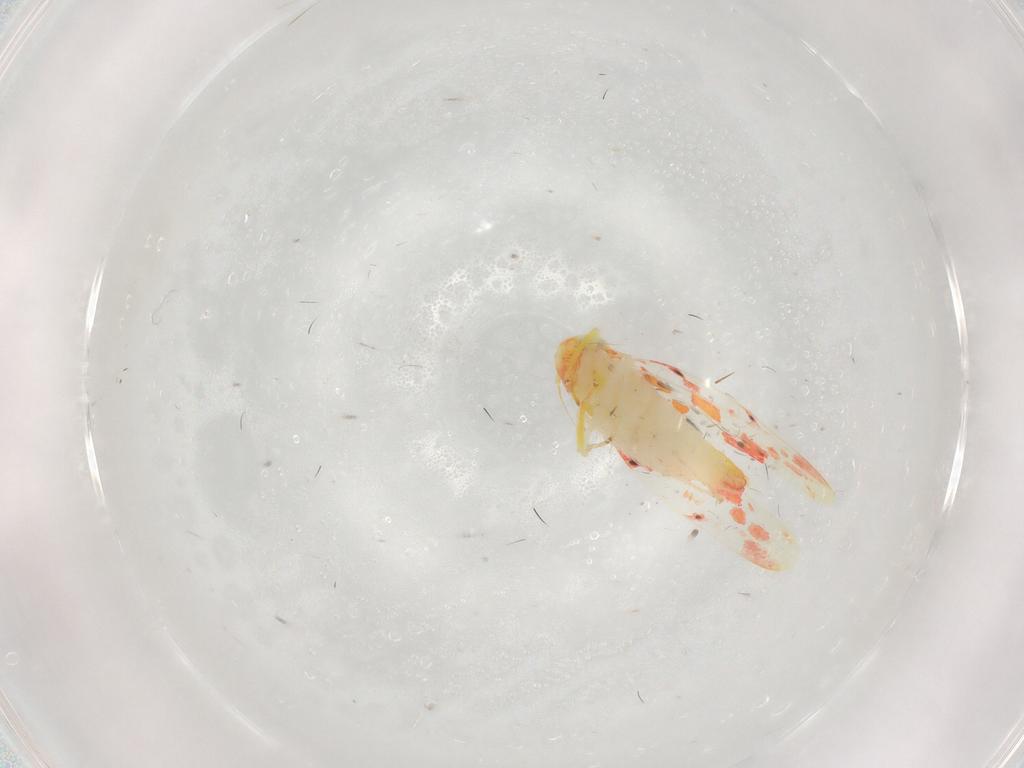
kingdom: Animalia
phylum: Arthropoda
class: Insecta
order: Hemiptera
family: Cicadellidae
